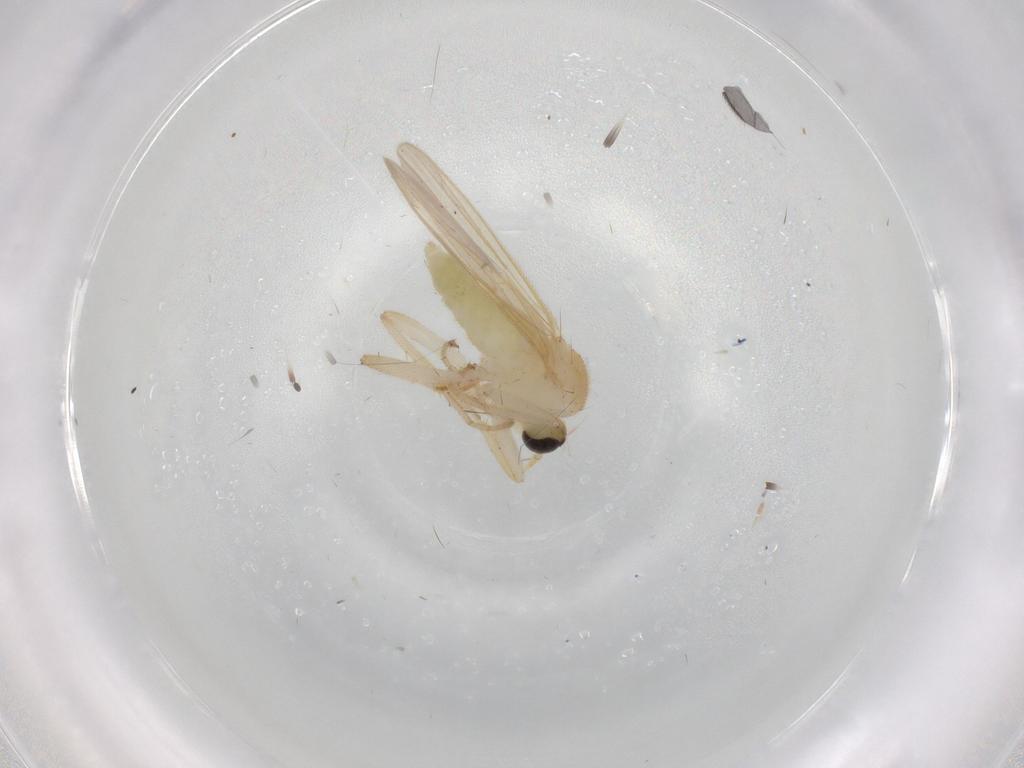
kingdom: Animalia
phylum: Arthropoda
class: Insecta
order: Diptera
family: Hybotidae
